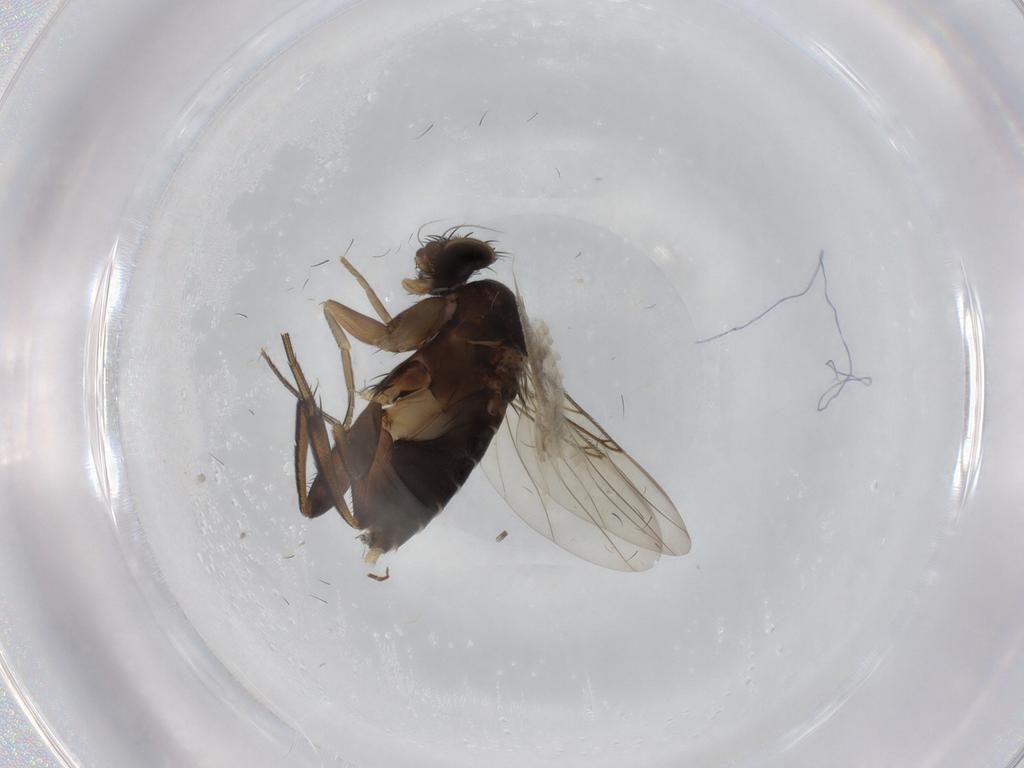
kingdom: Animalia
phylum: Arthropoda
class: Insecta
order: Diptera
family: Phoridae
